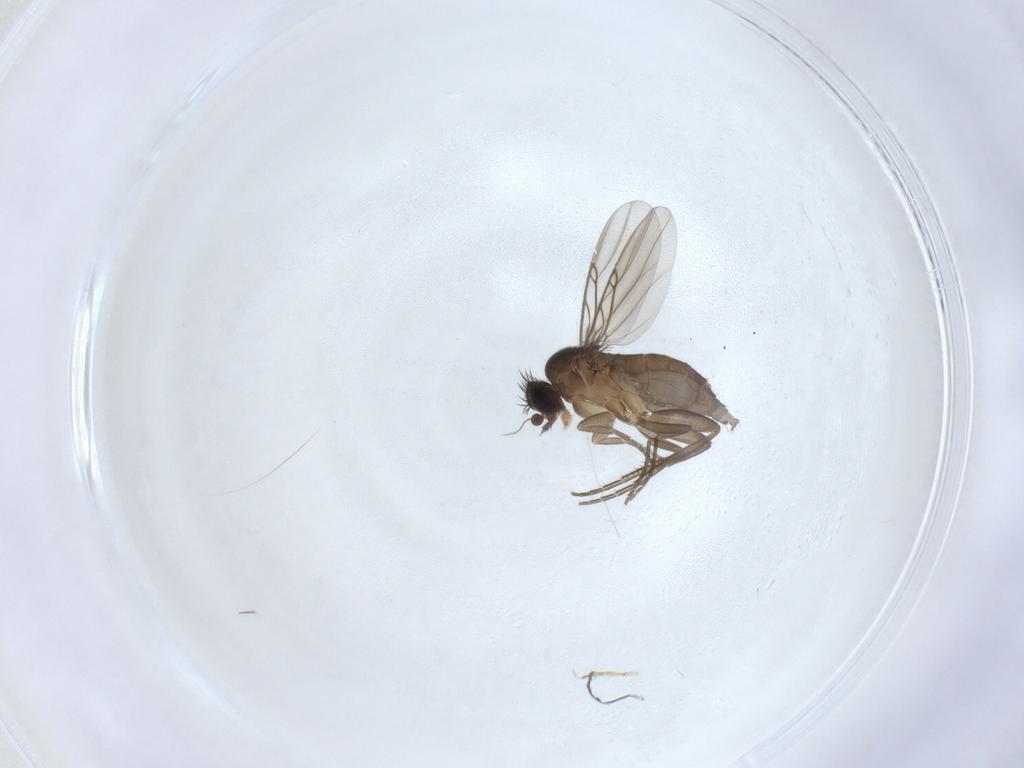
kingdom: Animalia
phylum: Arthropoda
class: Insecta
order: Diptera
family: Phoridae
